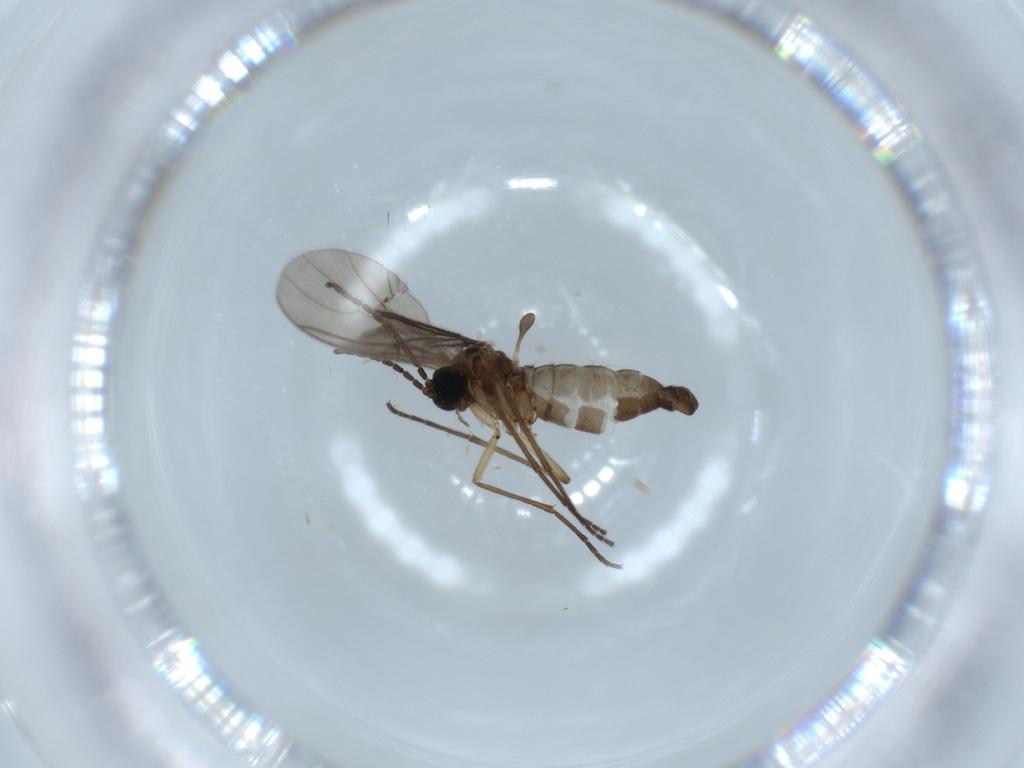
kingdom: Animalia
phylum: Arthropoda
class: Insecta
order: Diptera
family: Sciaridae
